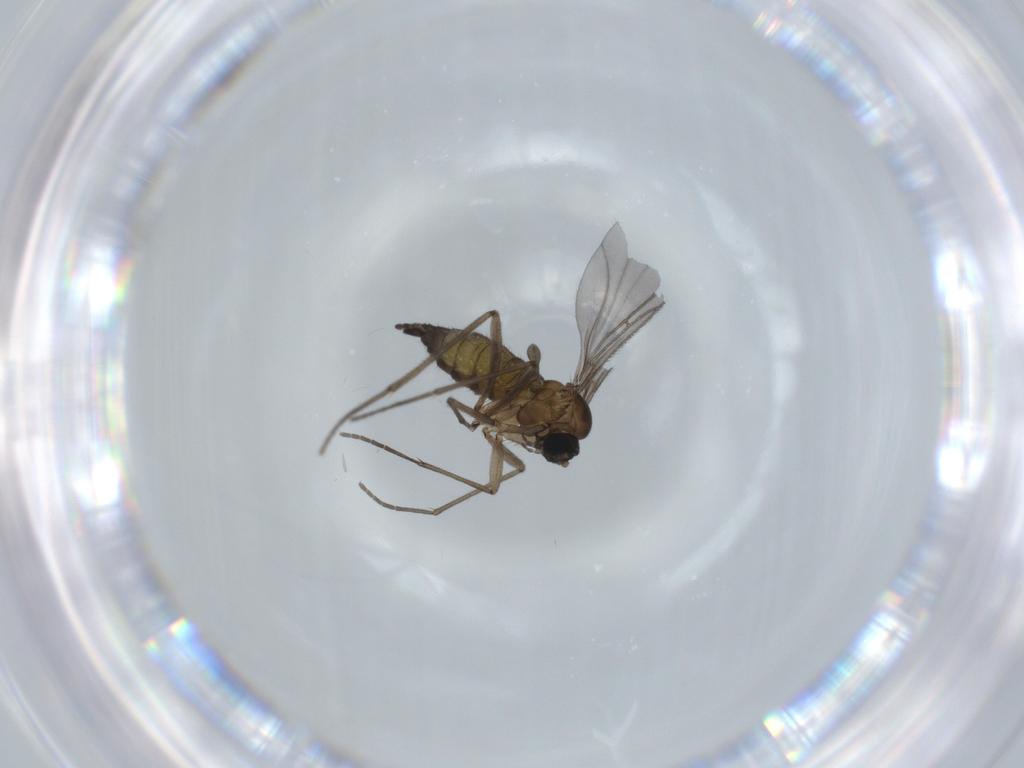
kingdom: Animalia
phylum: Arthropoda
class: Insecta
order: Diptera
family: Sciaridae
